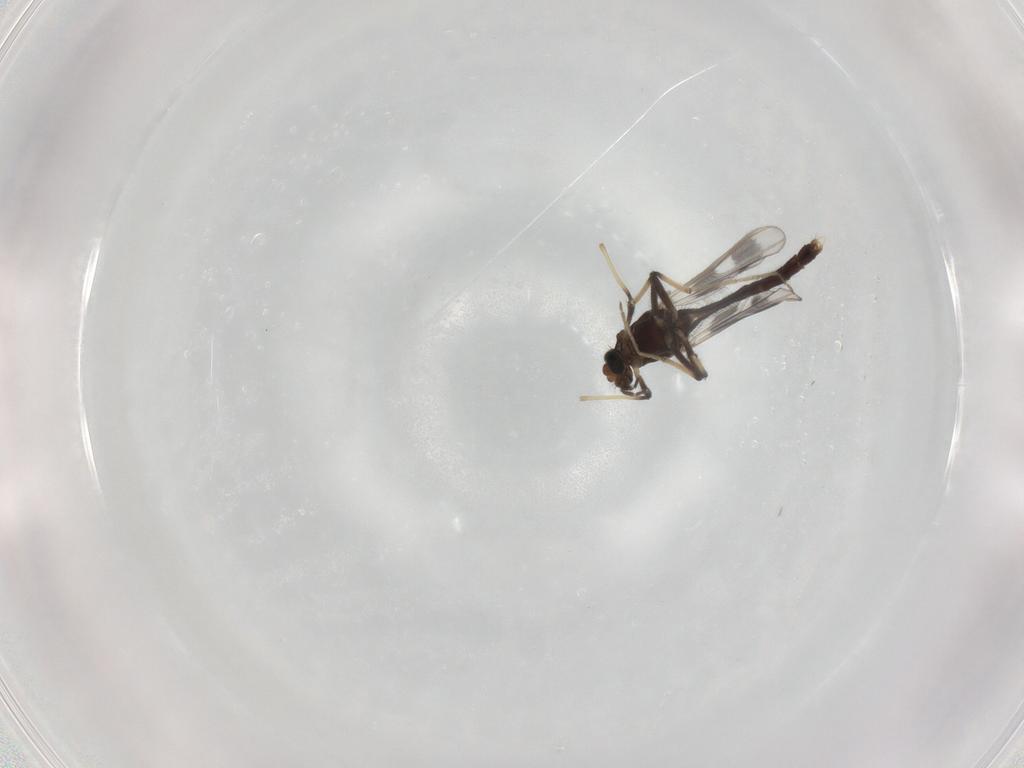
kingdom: Animalia
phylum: Arthropoda
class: Insecta
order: Diptera
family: Chironomidae
